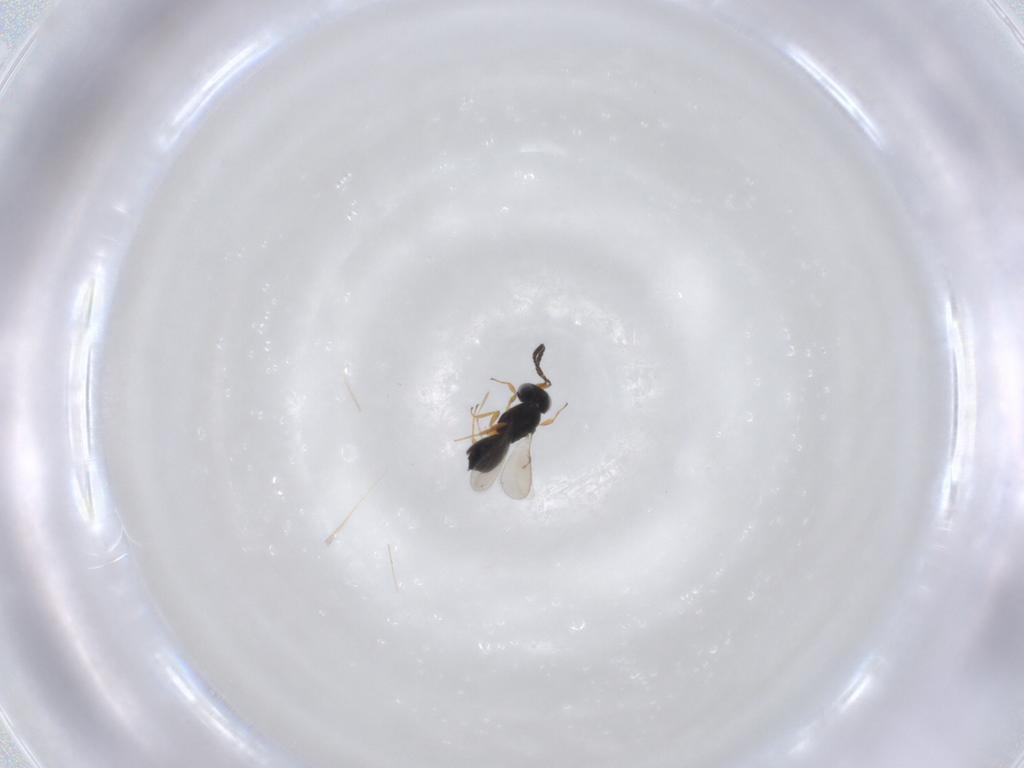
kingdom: Animalia
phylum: Arthropoda
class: Insecta
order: Hymenoptera
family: Scelionidae
